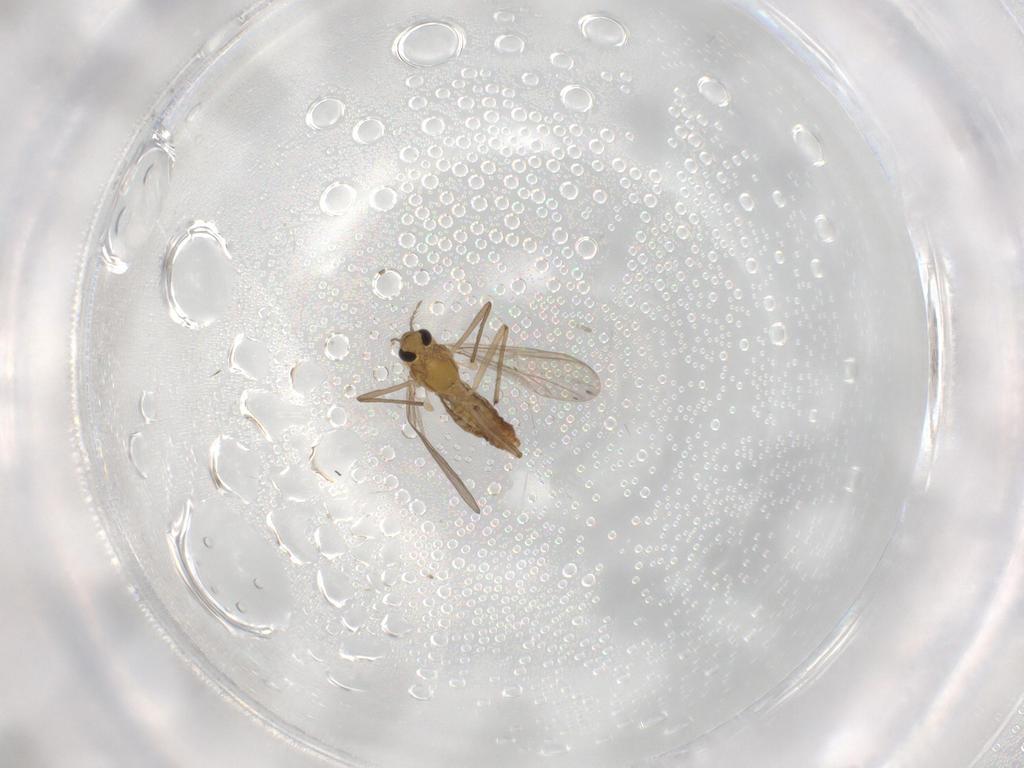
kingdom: Animalia
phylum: Arthropoda
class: Insecta
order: Diptera
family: Chironomidae
